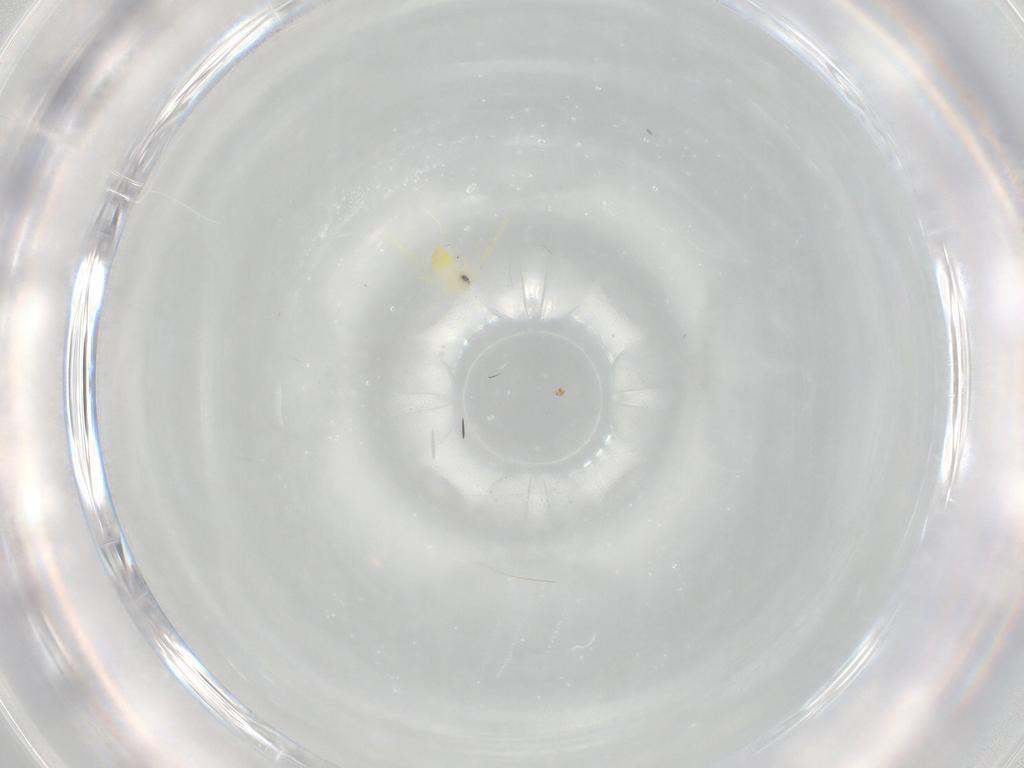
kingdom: Animalia
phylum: Arthropoda
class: Insecta
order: Hemiptera
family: Aleyrodidae
